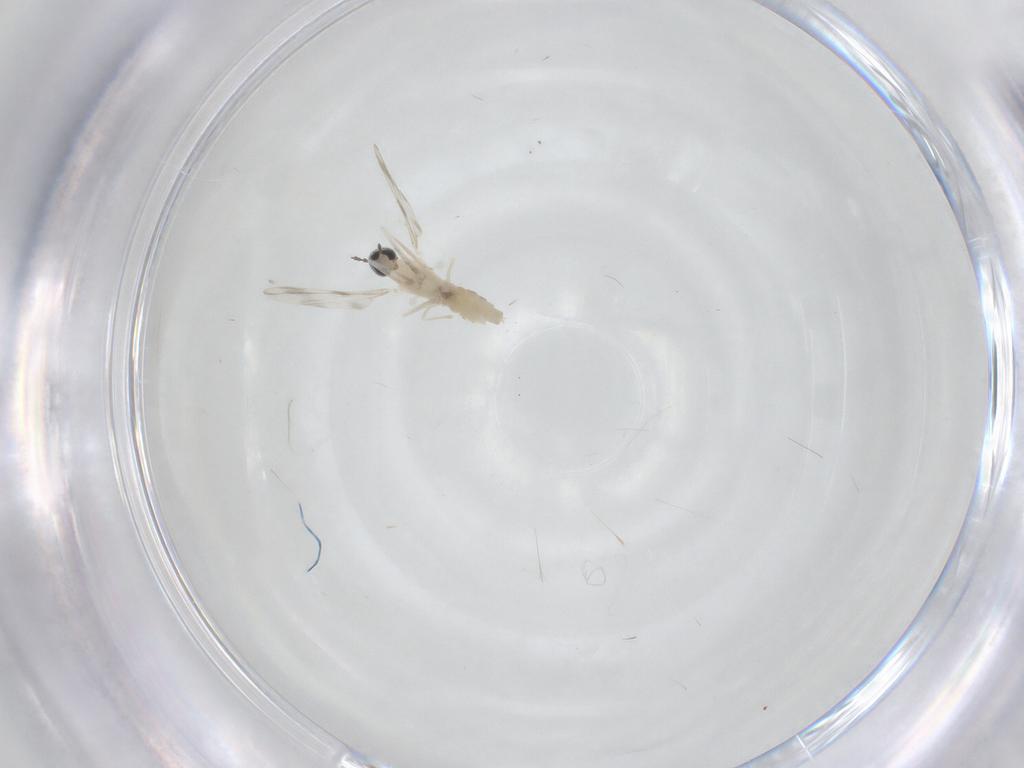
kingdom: Animalia
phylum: Arthropoda
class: Insecta
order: Diptera
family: Cecidomyiidae
